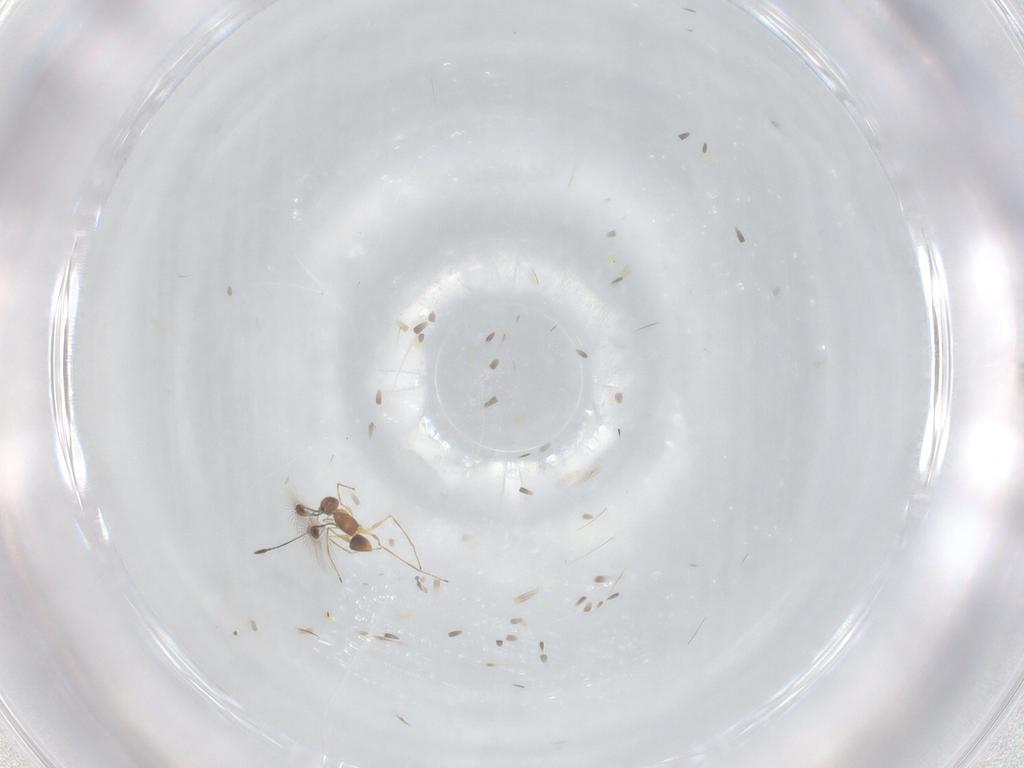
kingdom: Animalia
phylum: Arthropoda
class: Insecta
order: Hymenoptera
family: Mymaridae
